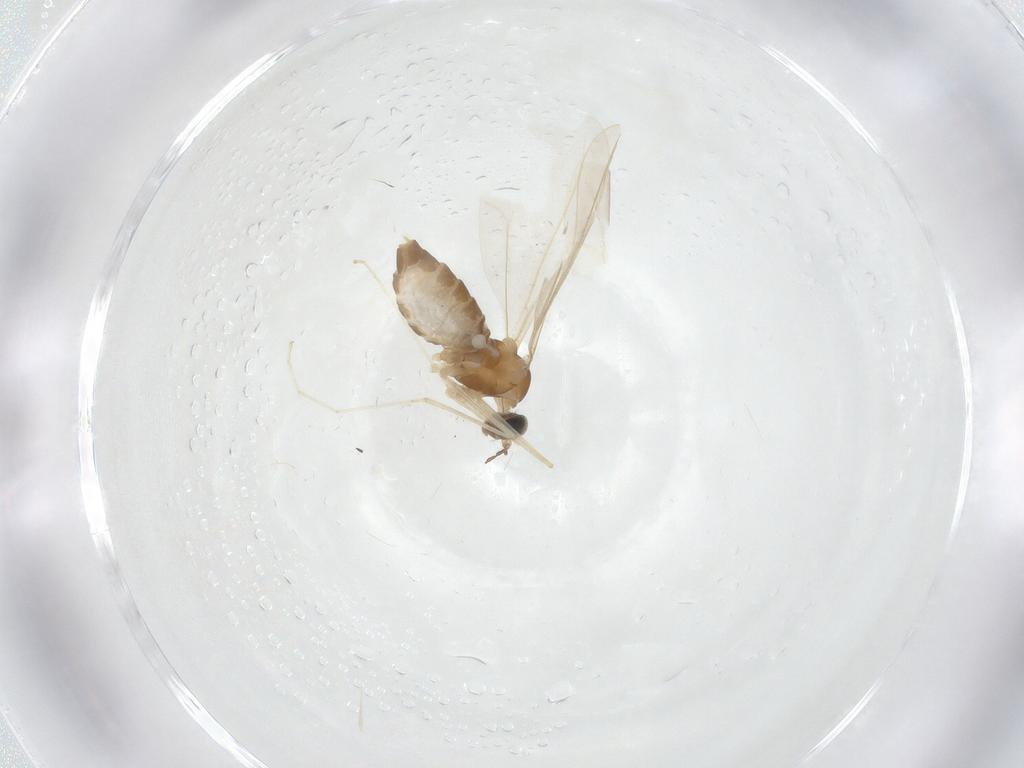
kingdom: Animalia
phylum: Arthropoda
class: Insecta
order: Diptera
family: Cecidomyiidae
